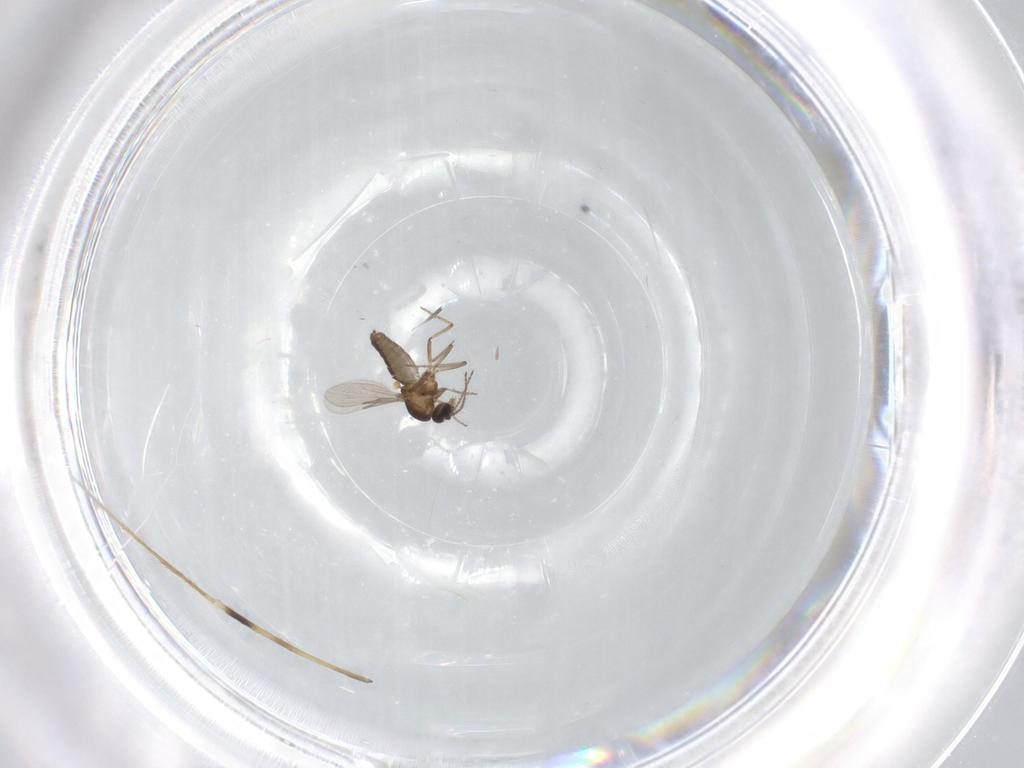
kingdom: Animalia
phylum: Arthropoda
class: Insecta
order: Diptera
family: Limoniidae
